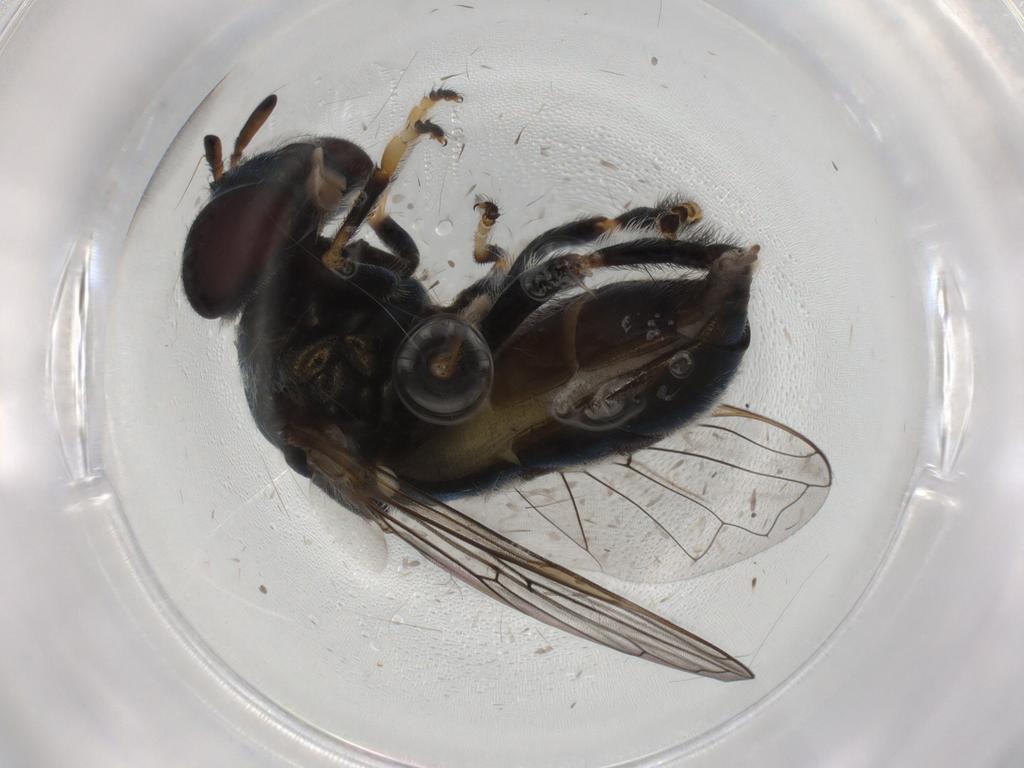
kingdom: Animalia
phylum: Arthropoda
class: Insecta
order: Diptera
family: Syrphidae
